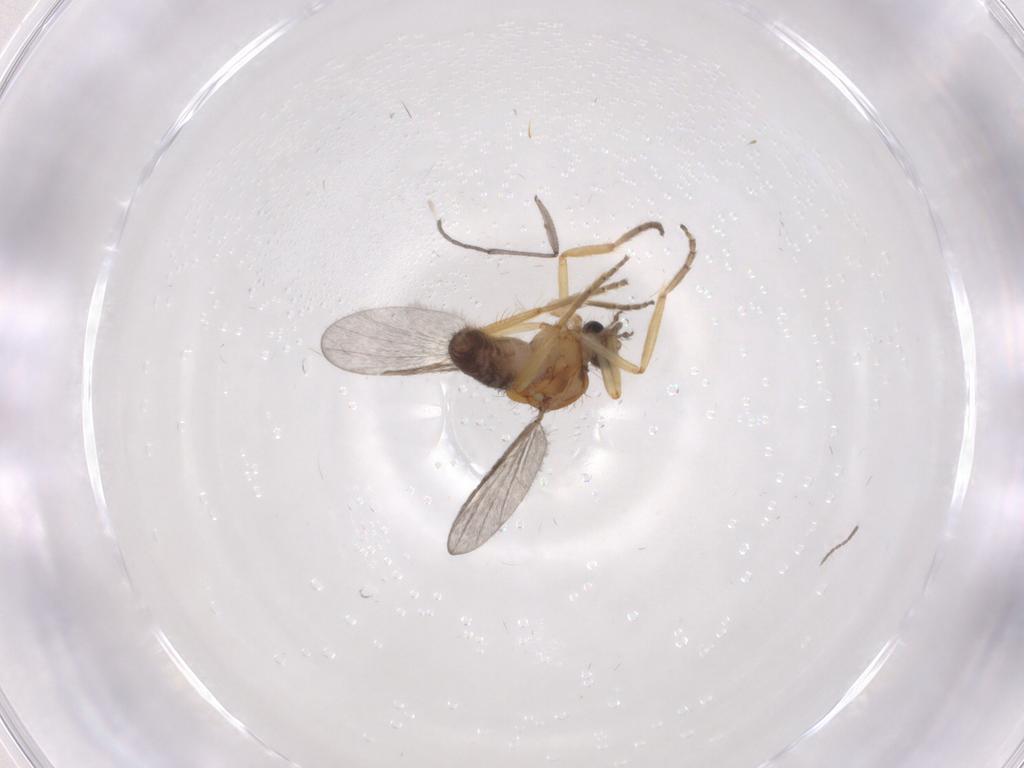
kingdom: Animalia
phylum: Arthropoda
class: Insecta
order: Diptera
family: Ceratopogonidae
